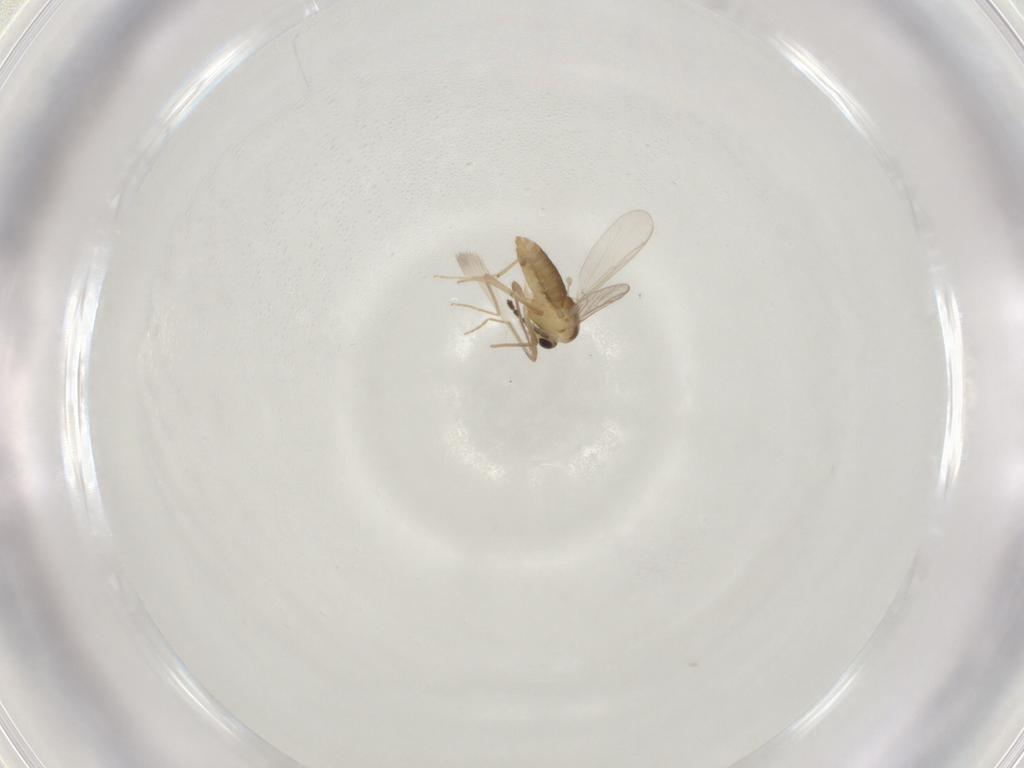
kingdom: Animalia
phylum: Arthropoda
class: Insecta
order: Diptera
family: Chironomidae
